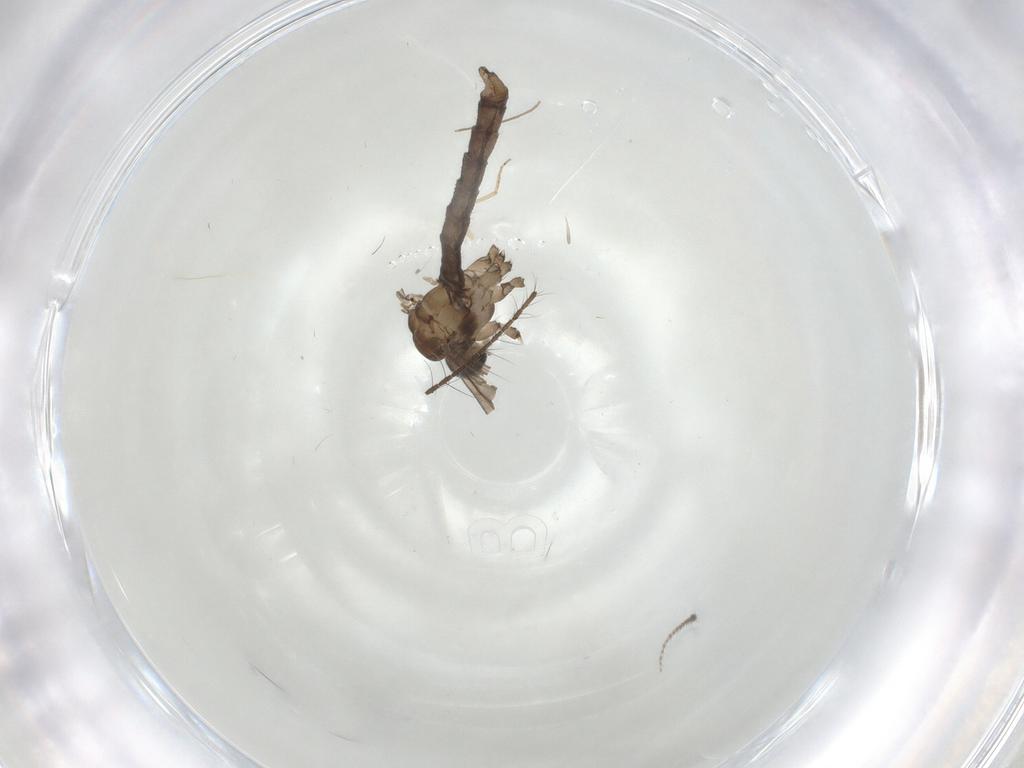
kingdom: Animalia
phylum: Arthropoda
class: Insecta
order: Diptera
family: Limoniidae
